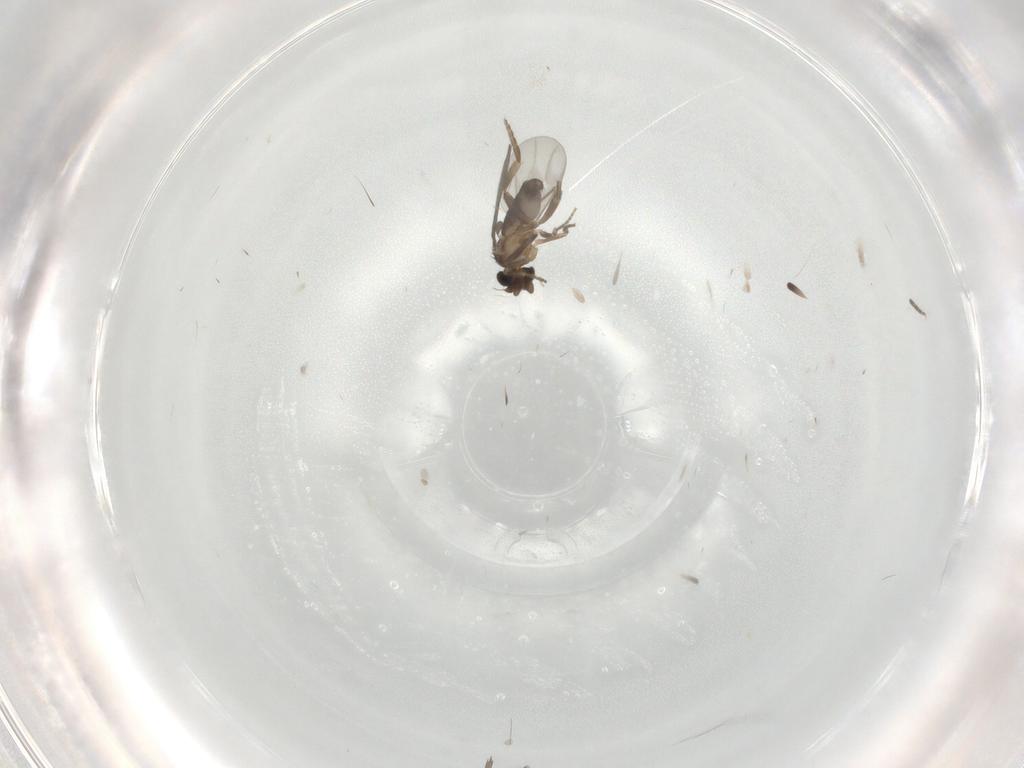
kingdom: Animalia
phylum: Arthropoda
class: Insecta
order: Diptera
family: Phoridae
